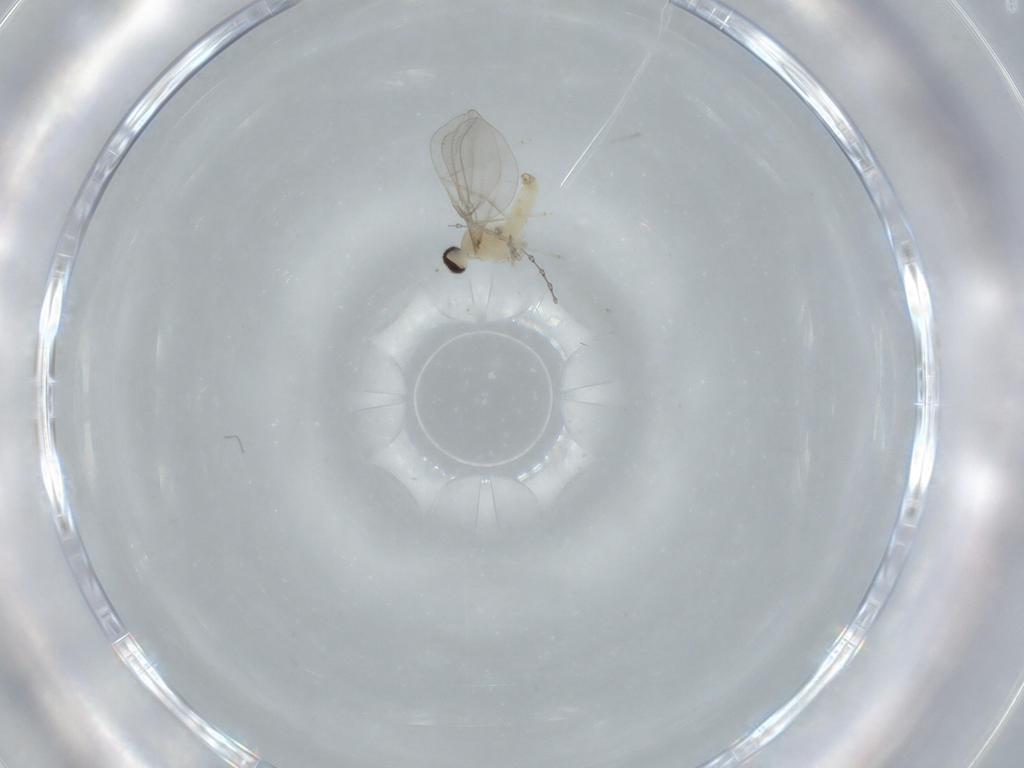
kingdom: Animalia
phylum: Arthropoda
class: Insecta
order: Diptera
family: Cecidomyiidae
